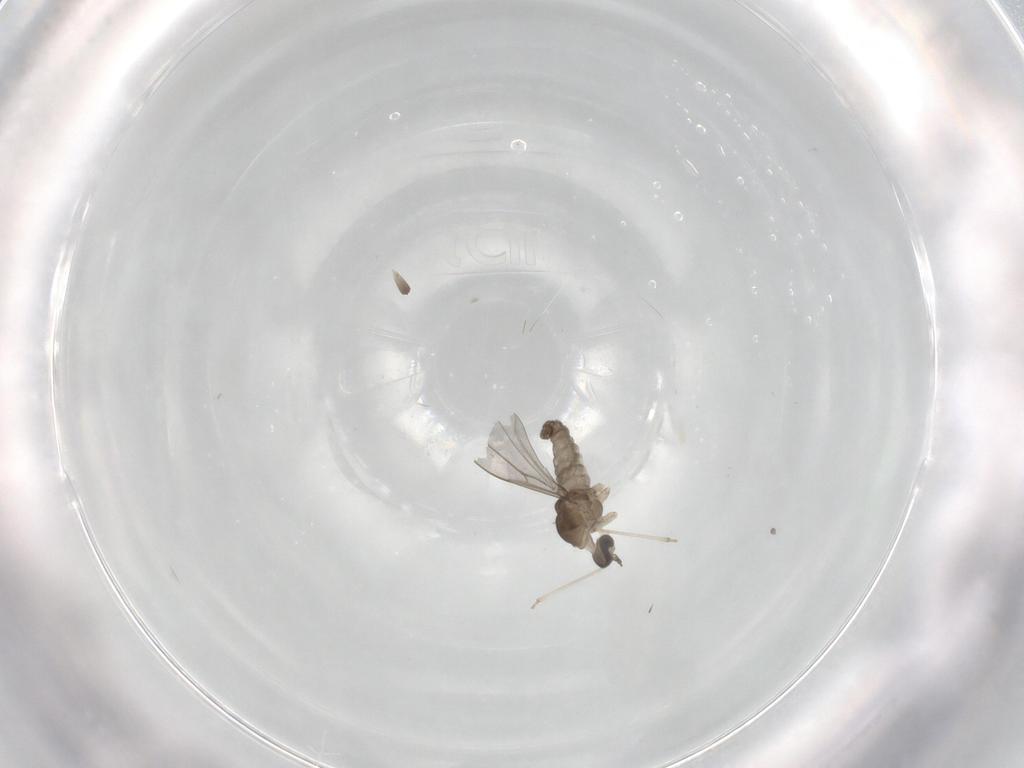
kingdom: Animalia
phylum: Arthropoda
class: Insecta
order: Diptera
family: Cecidomyiidae
